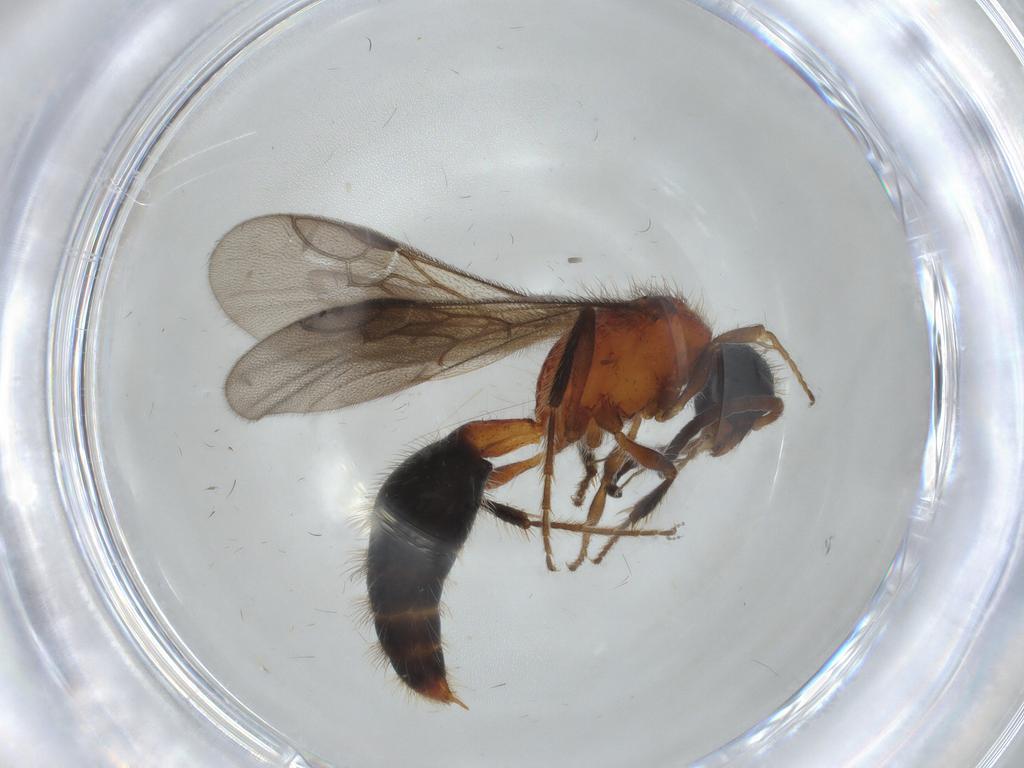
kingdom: Animalia
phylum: Arthropoda
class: Insecta
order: Hymenoptera
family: Mutillidae
